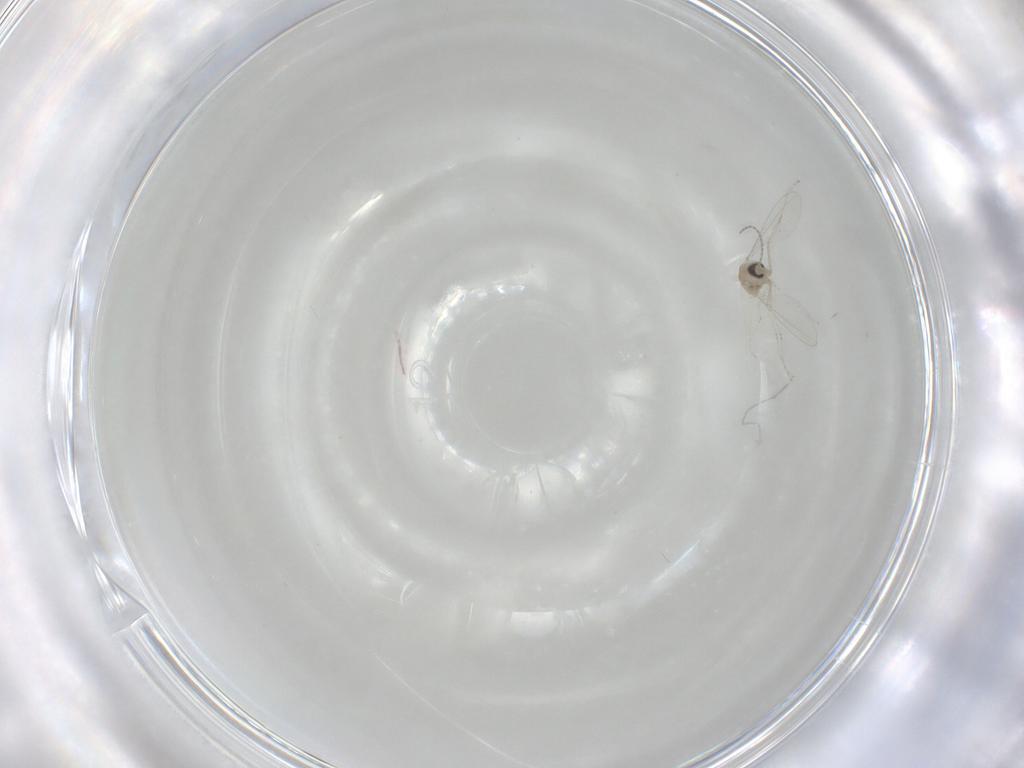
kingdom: Animalia
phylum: Arthropoda
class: Insecta
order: Diptera
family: Cecidomyiidae
